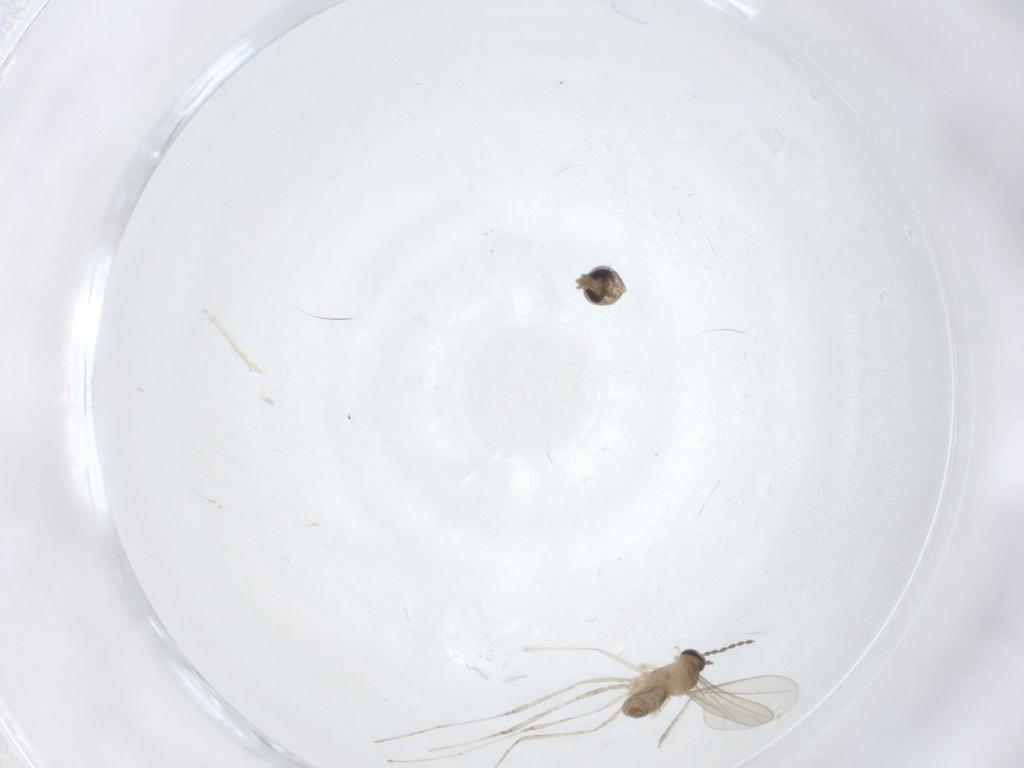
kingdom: Animalia
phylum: Arthropoda
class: Insecta
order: Diptera
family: Cecidomyiidae
